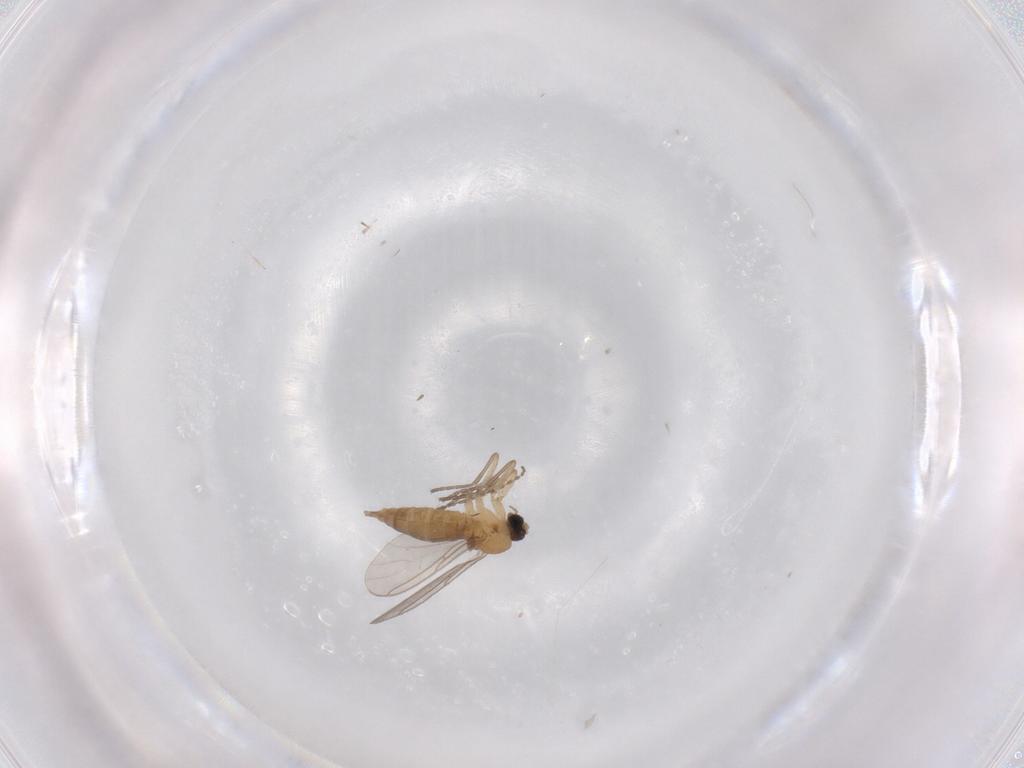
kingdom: Animalia
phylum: Arthropoda
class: Insecta
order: Diptera
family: Sciaridae
